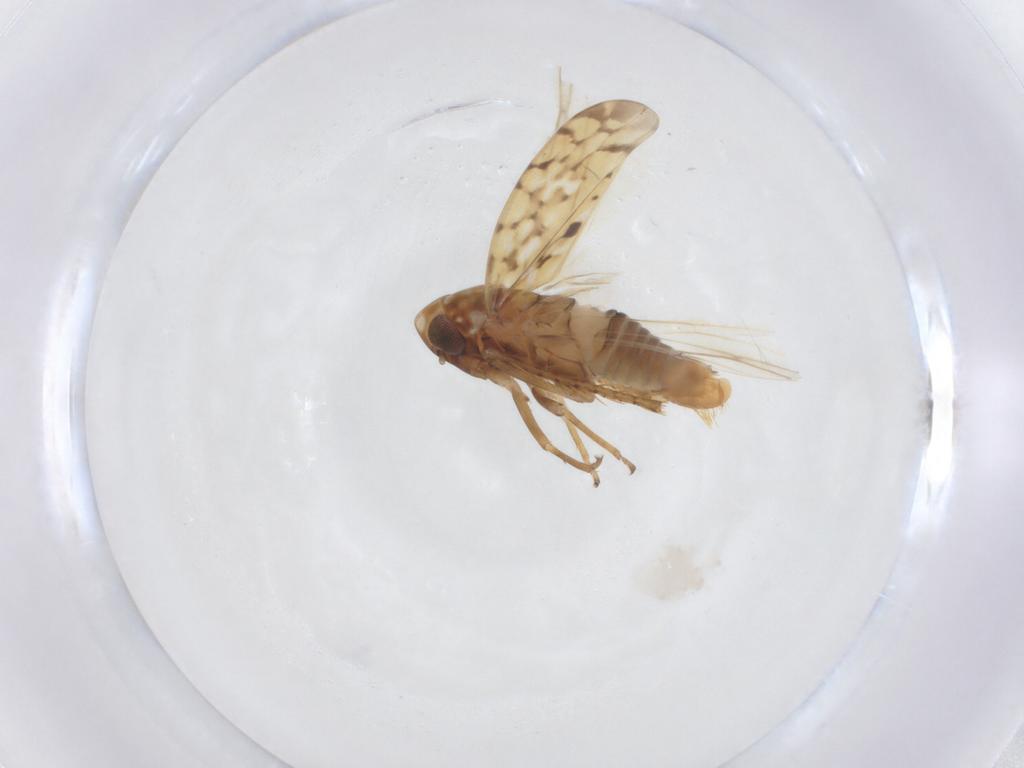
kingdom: Animalia
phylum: Arthropoda
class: Insecta
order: Hemiptera
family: Cicadellidae
